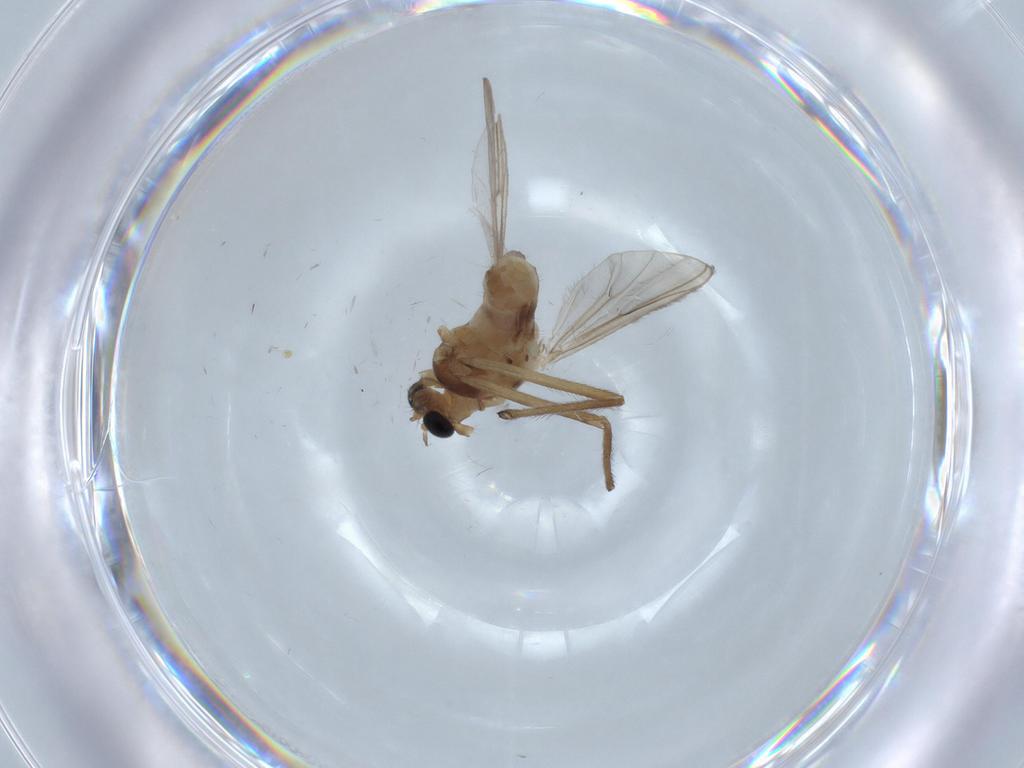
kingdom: Animalia
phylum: Arthropoda
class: Insecta
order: Diptera
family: Chironomidae
